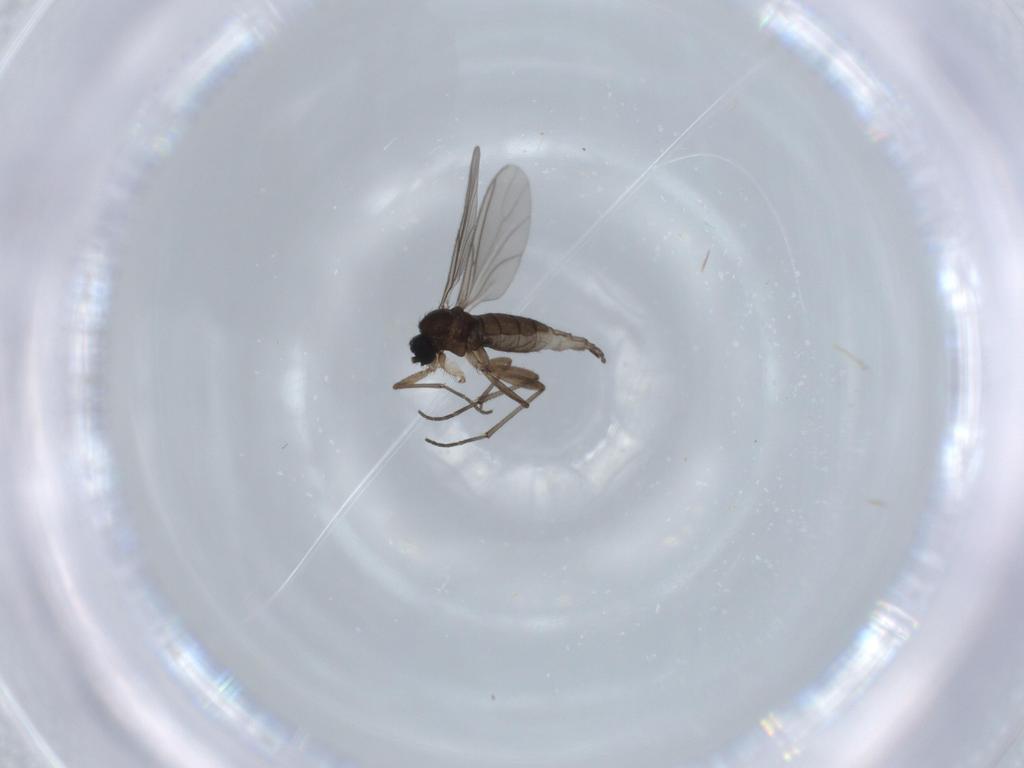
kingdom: Animalia
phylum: Arthropoda
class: Insecta
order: Diptera
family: Sciaridae
